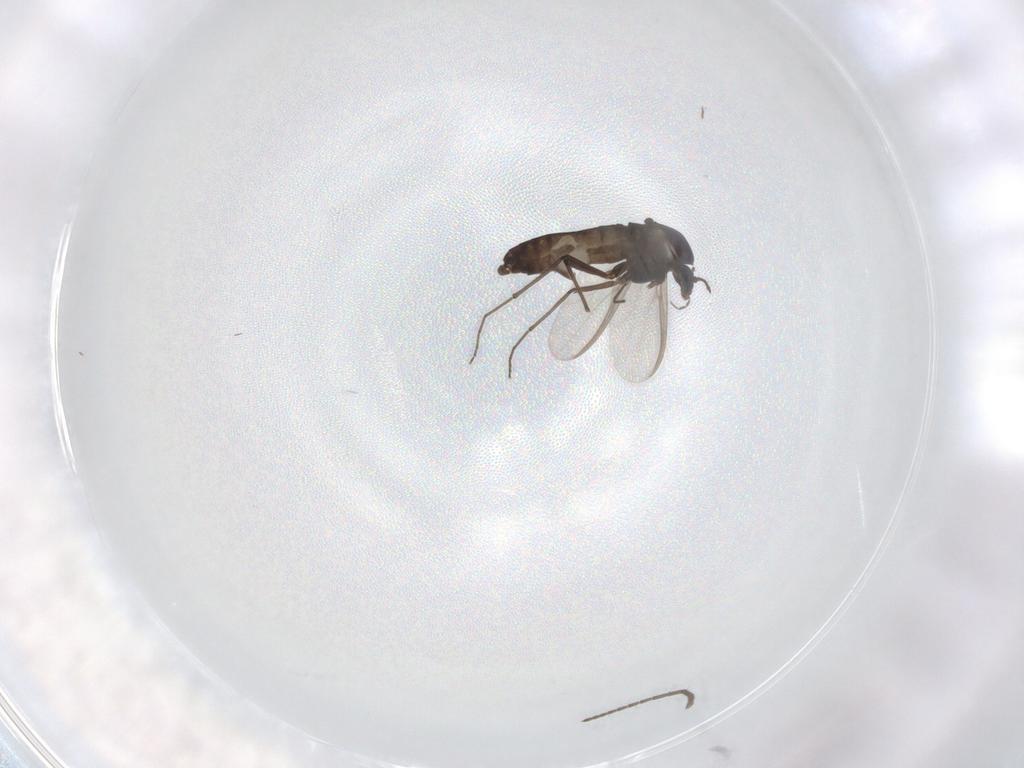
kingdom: Animalia
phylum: Arthropoda
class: Insecta
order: Diptera
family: Chironomidae
